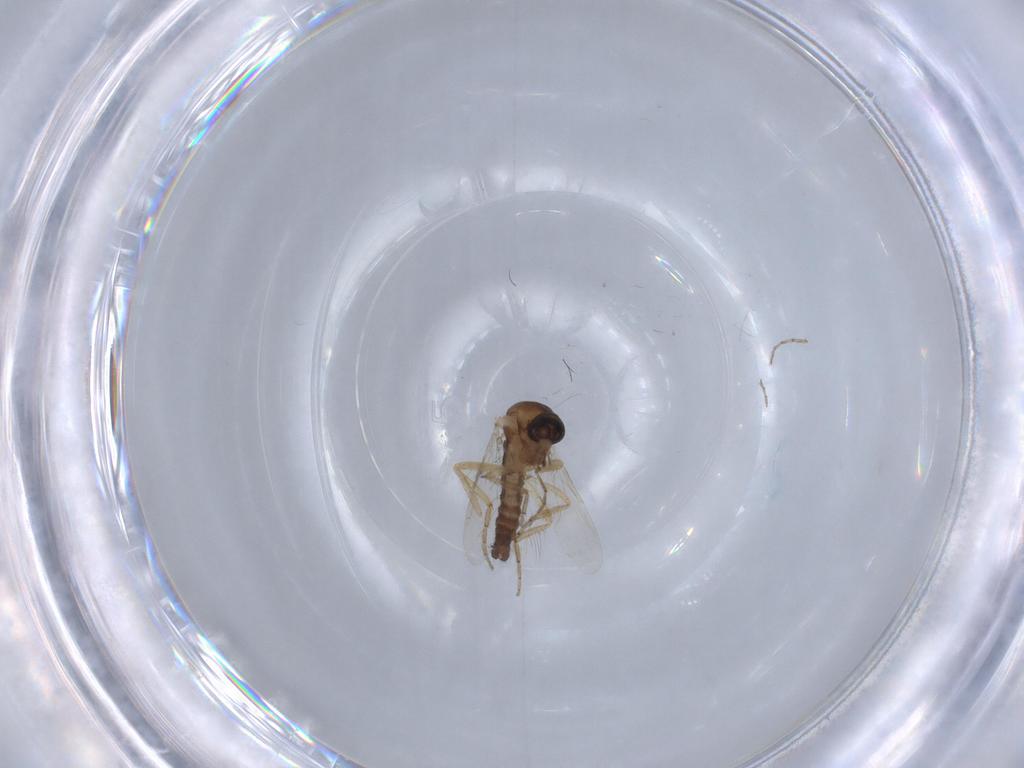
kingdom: Animalia
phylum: Arthropoda
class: Insecta
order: Diptera
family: Ceratopogonidae
